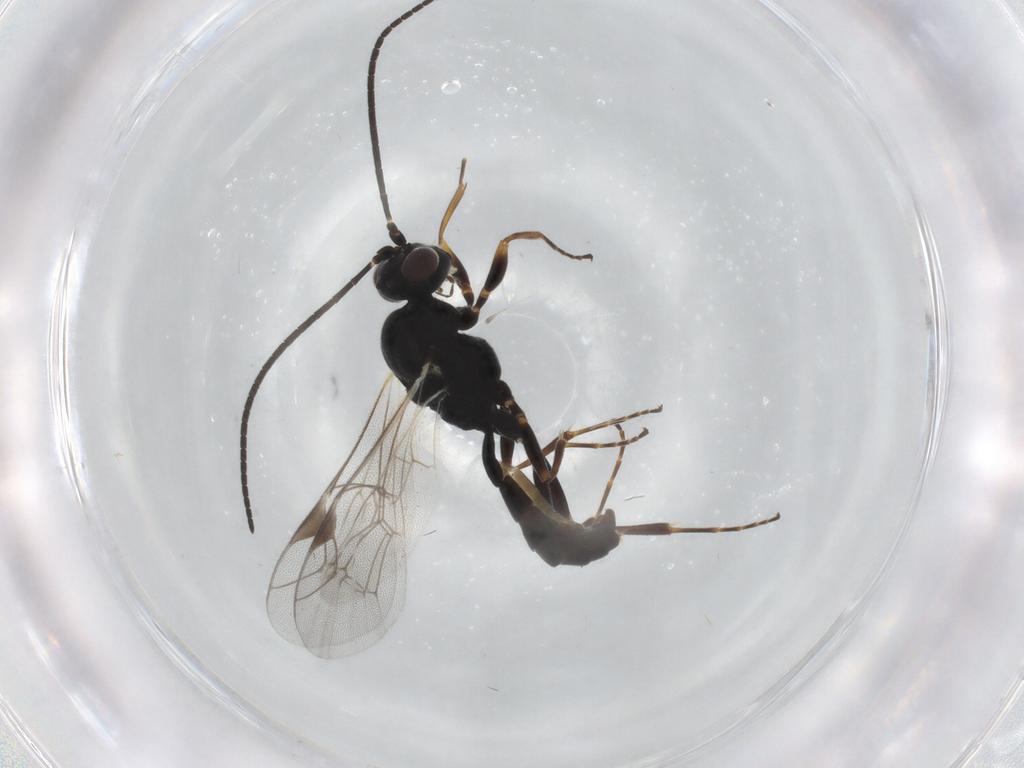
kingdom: Animalia
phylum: Arthropoda
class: Insecta
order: Hymenoptera
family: Ichneumonidae
